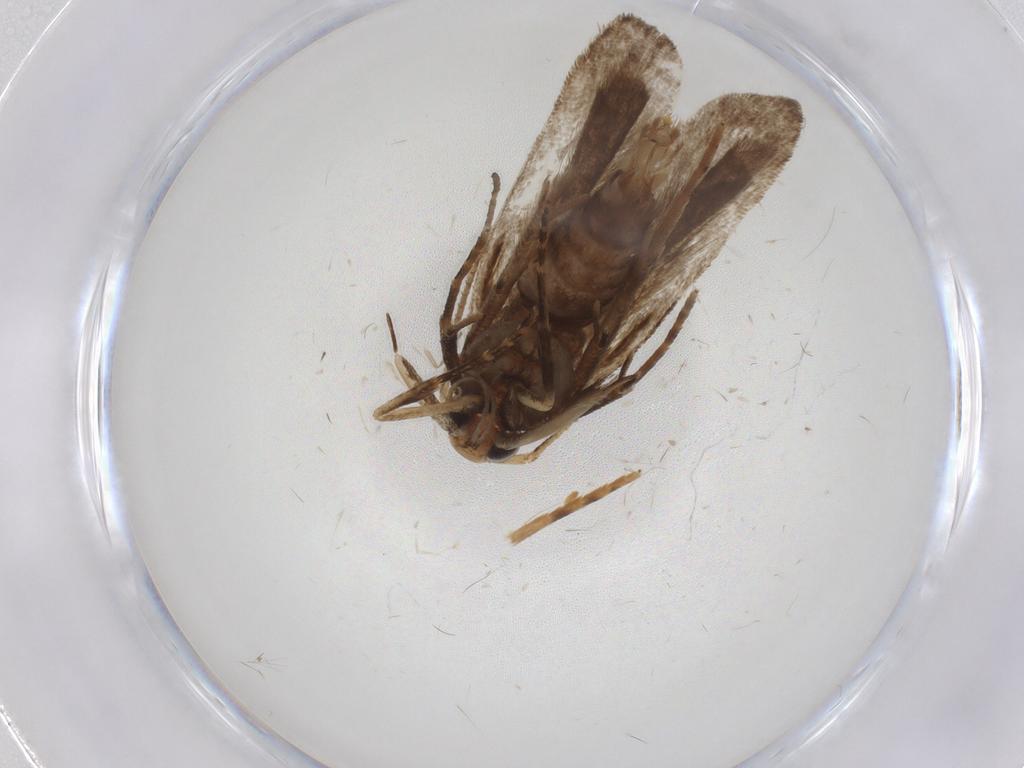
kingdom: Animalia
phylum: Arthropoda
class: Insecta
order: Lepidoptera
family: Gelechiidae
